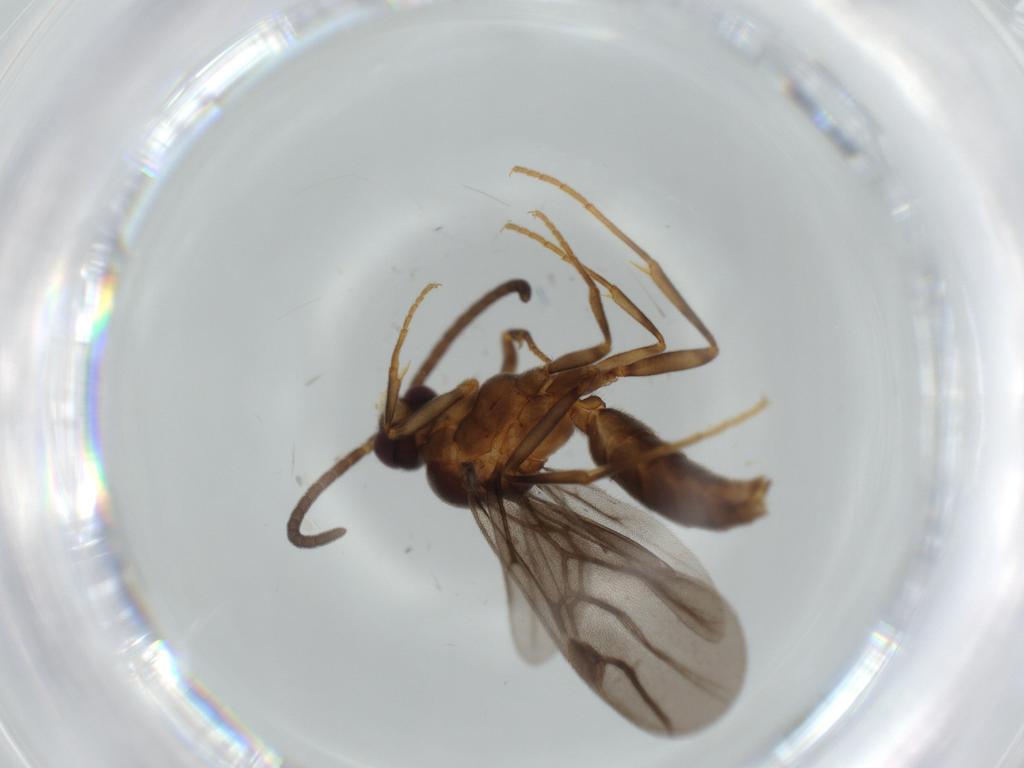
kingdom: Animalia
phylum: Arthropoda
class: Insecta
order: Hymenoptera
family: Formicidae
